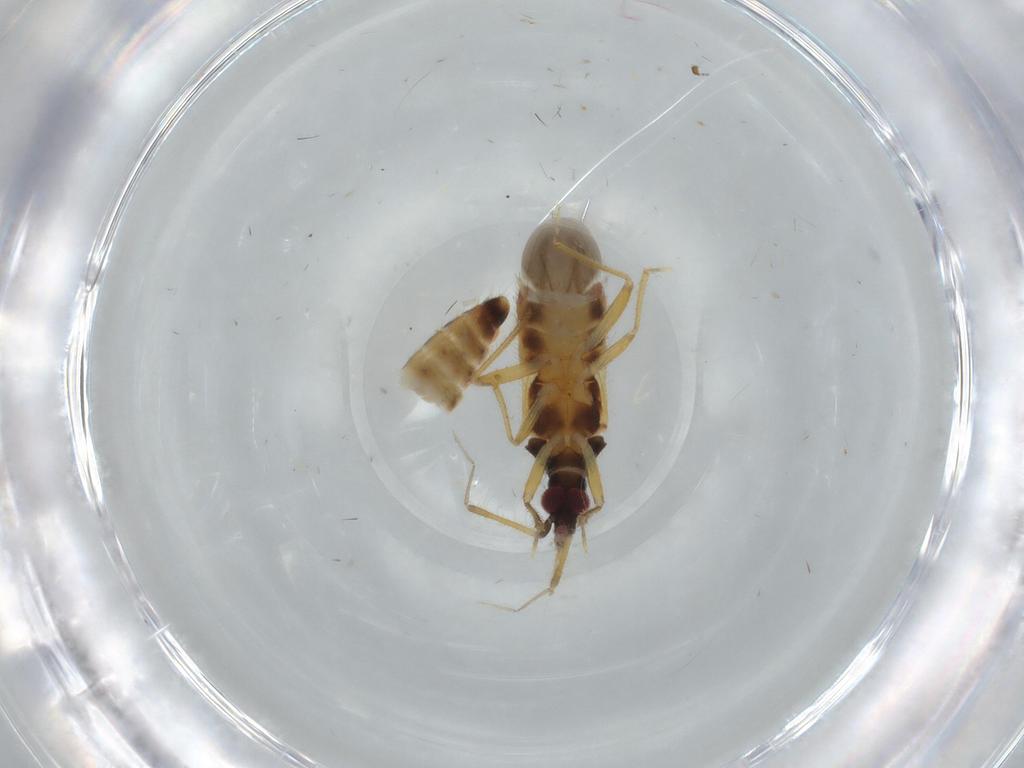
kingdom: Animalia
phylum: Arthropoda
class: Insecta
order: Hemiptera
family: Lasiochilidae
